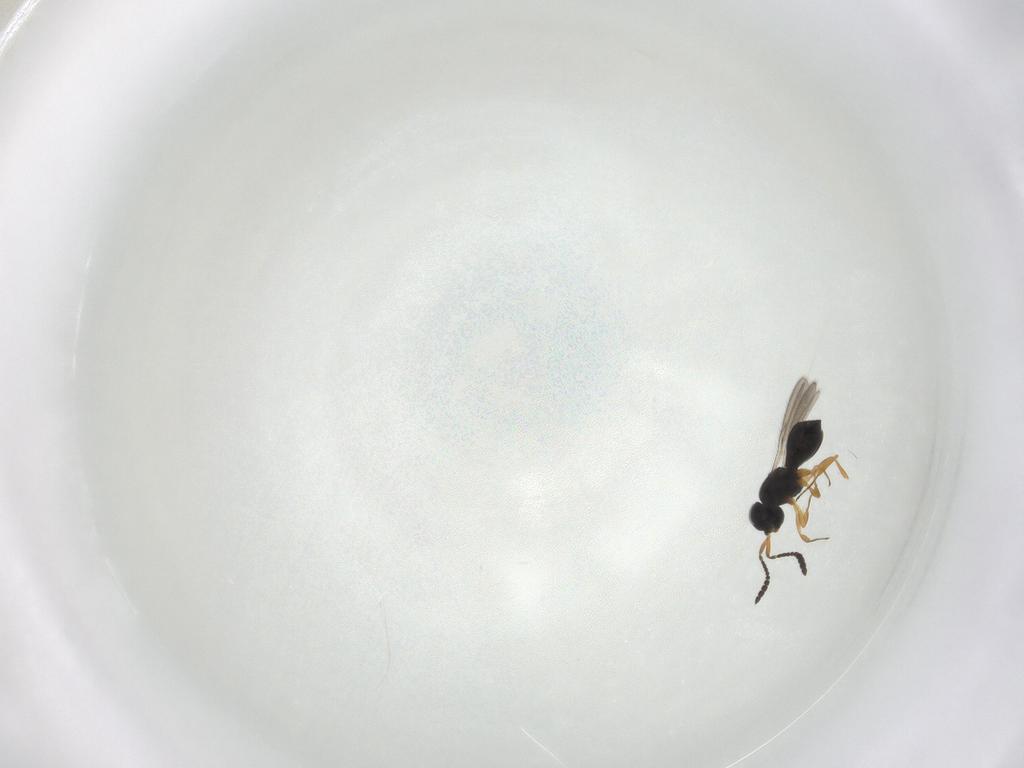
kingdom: Animalia
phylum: Arthropoda
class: Insecta
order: Hymenoptera
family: Scelionidae
